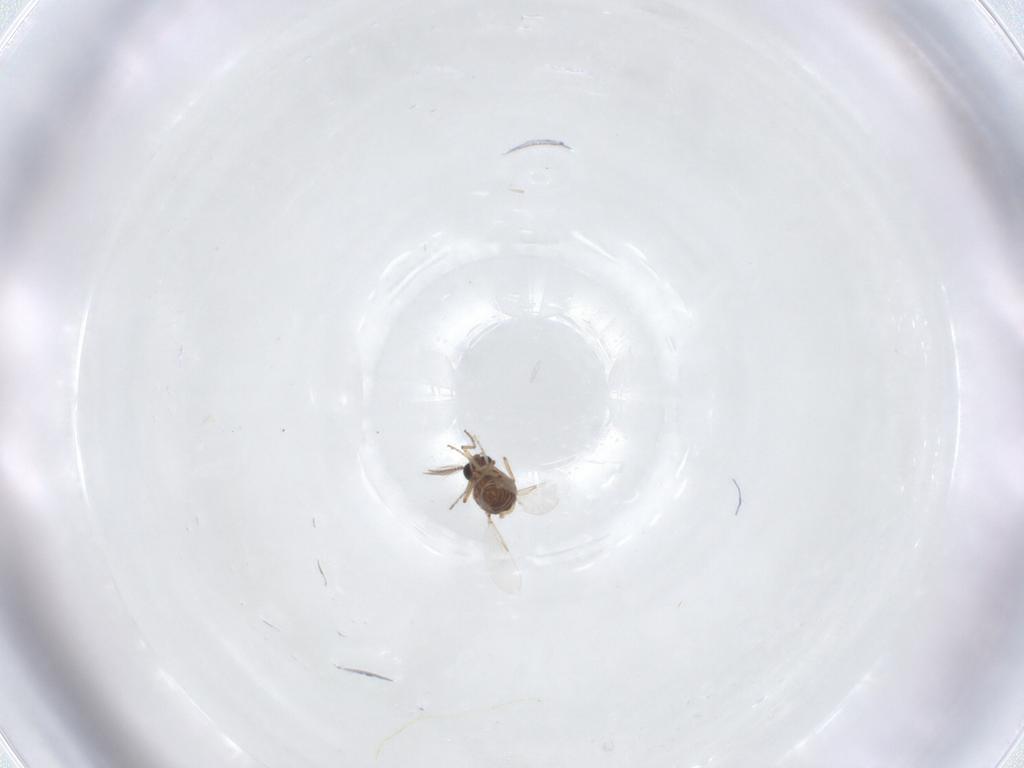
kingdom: Animalia
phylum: Arthropoda
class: Insecta
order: Diptera
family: Ceratopogonidae
